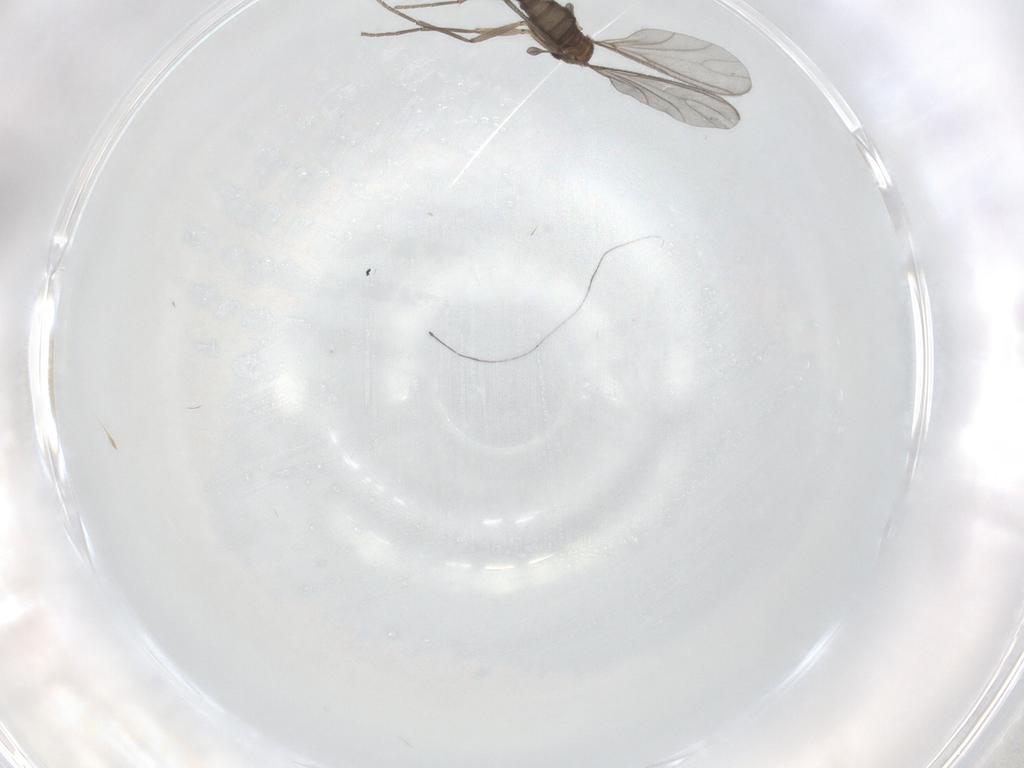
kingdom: Animalia
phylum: Arthropoda
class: Insecta
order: Diptera
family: Sciaridae
